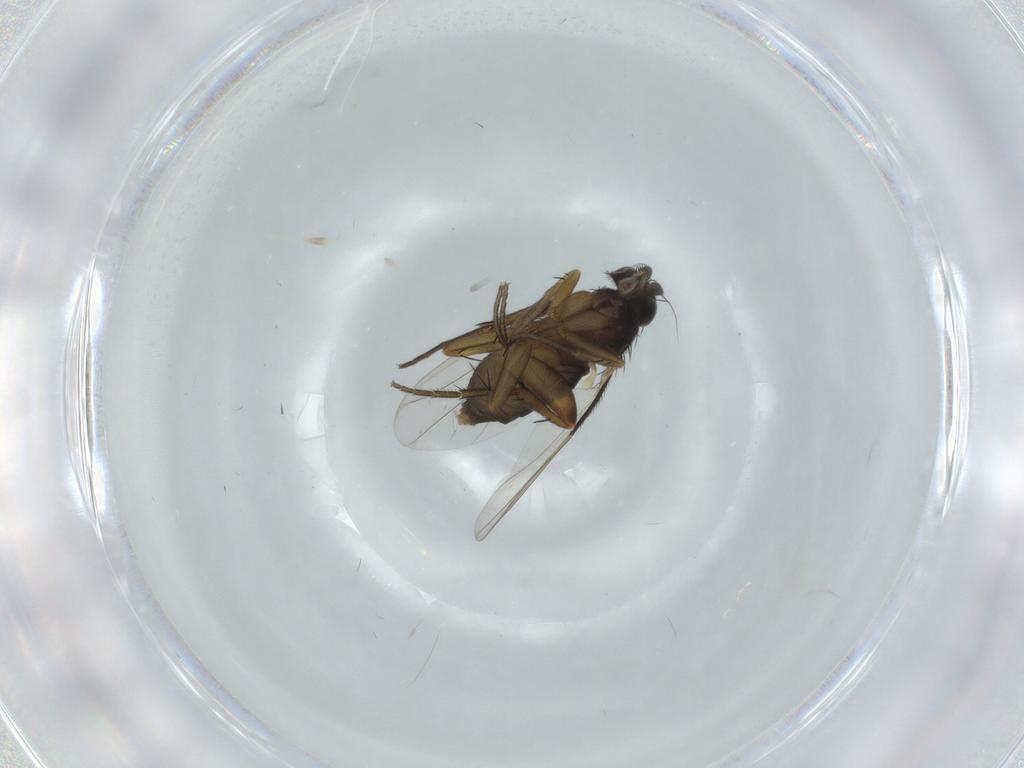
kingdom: Animalia
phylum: Arthropoda
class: Insecta
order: Diptera
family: Phoridae
